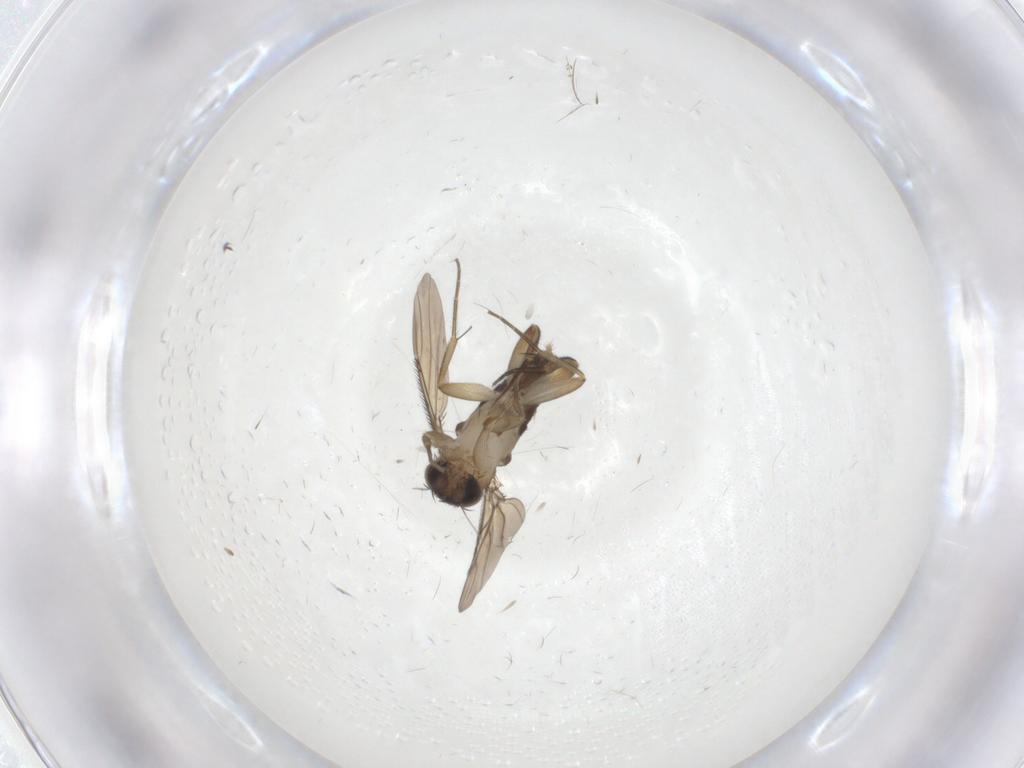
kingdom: Animalia
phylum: Arthropoda
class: Insecta
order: Diptera
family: Phoridae
